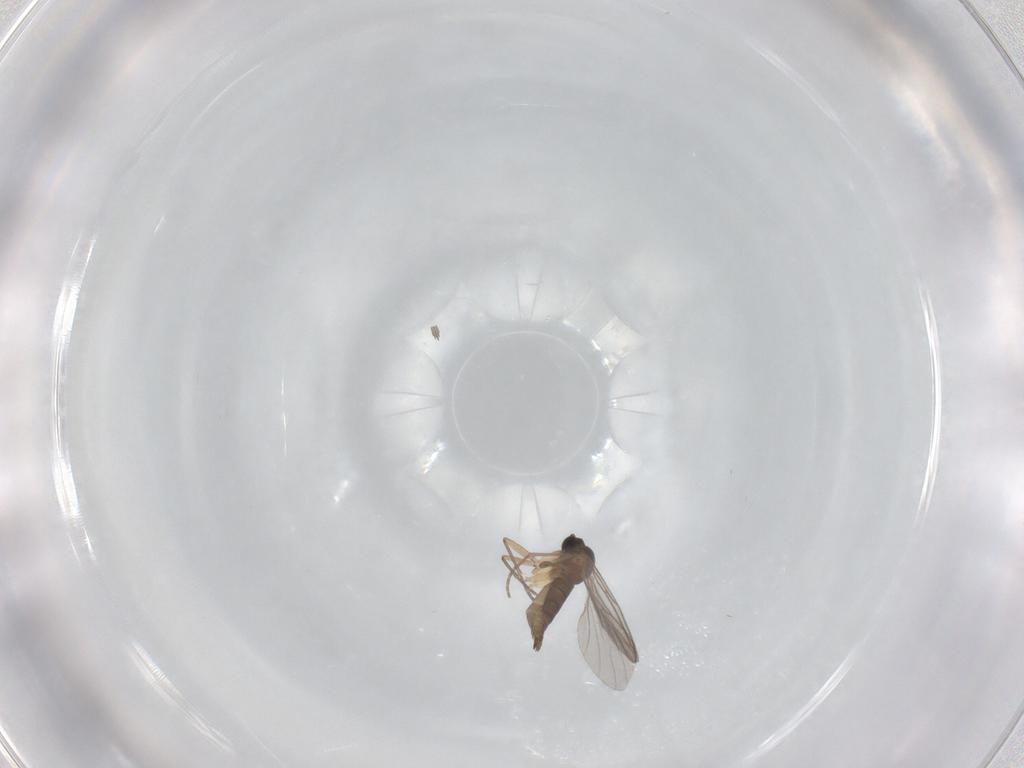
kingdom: Animalia
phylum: Arthropoda
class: Insecta
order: Diptera
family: Sciaridae
